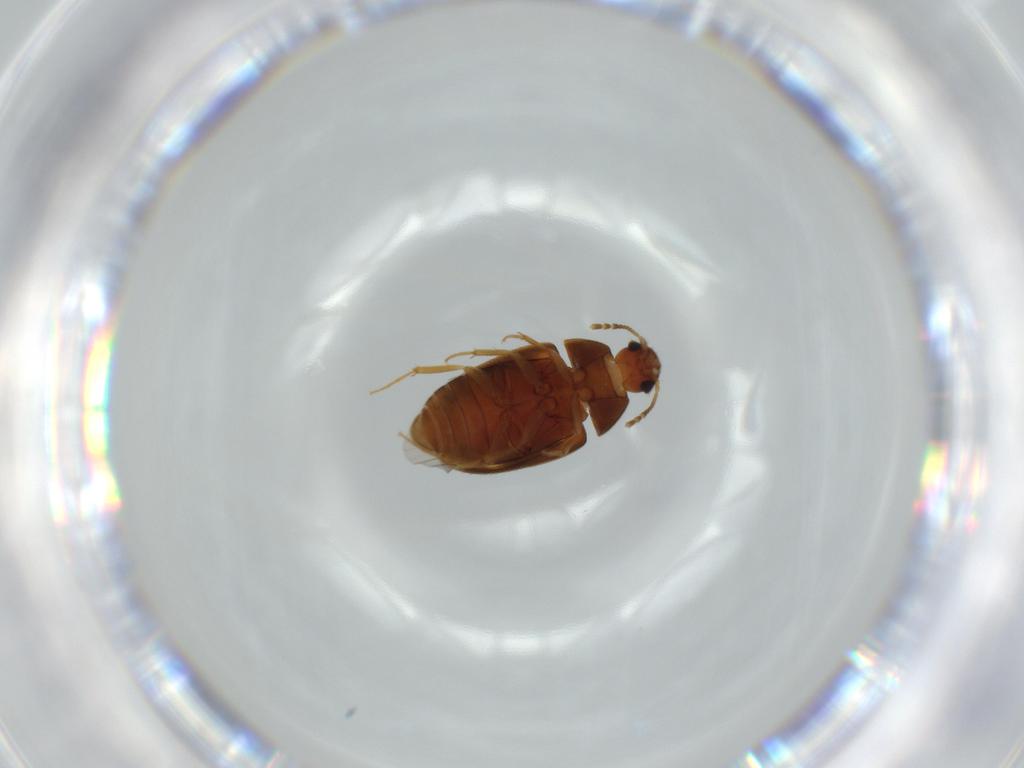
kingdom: Animalia
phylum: Arthropoda
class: Insecta
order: Coleoptera
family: Mycetophagidae
